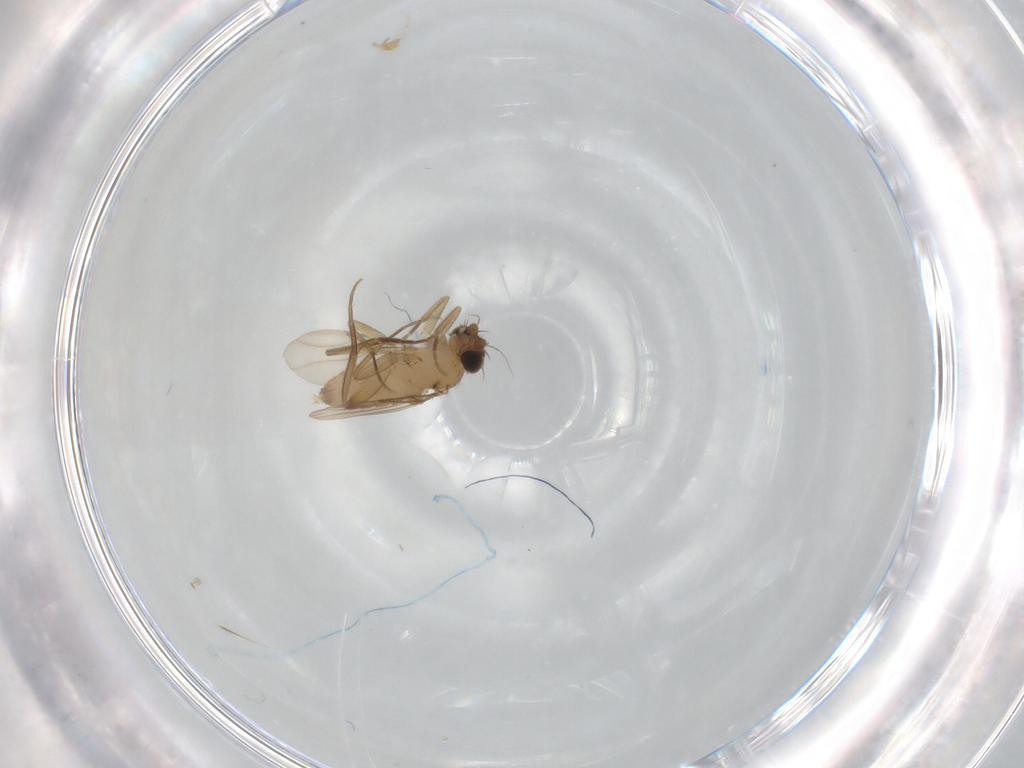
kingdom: Animalia
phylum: Arthropoda
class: Insecta
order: Diptera
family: Phoridae
